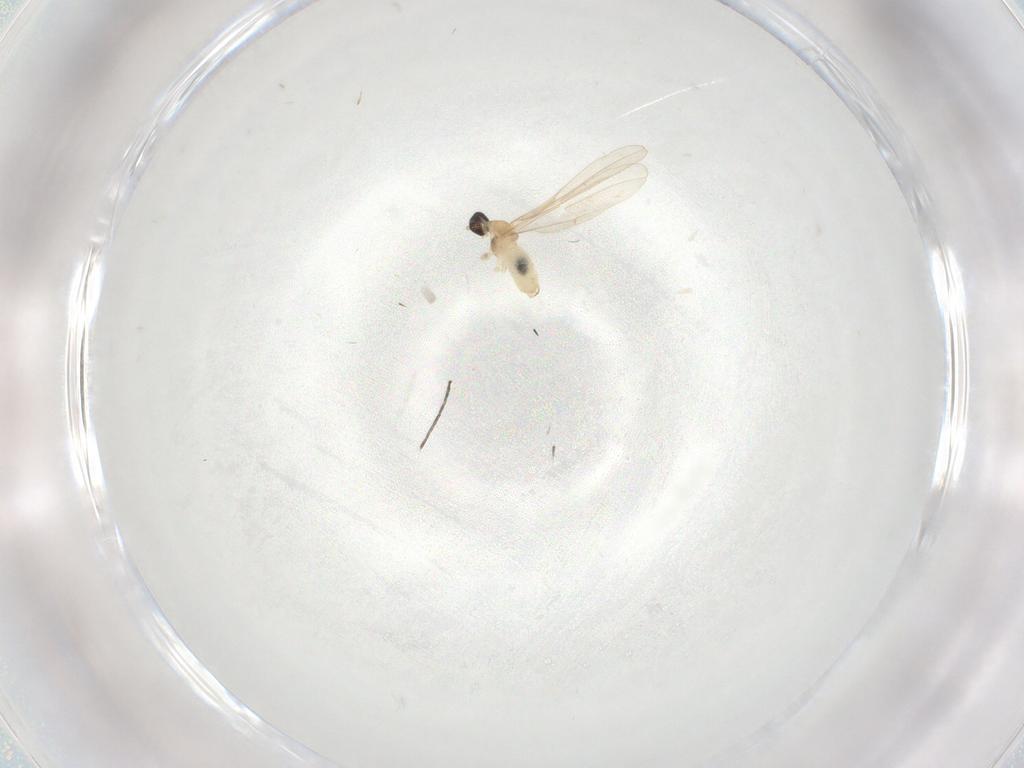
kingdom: Animalia
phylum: Arthropoda
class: Insecta
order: Diptera
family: Cecidomyiidae
